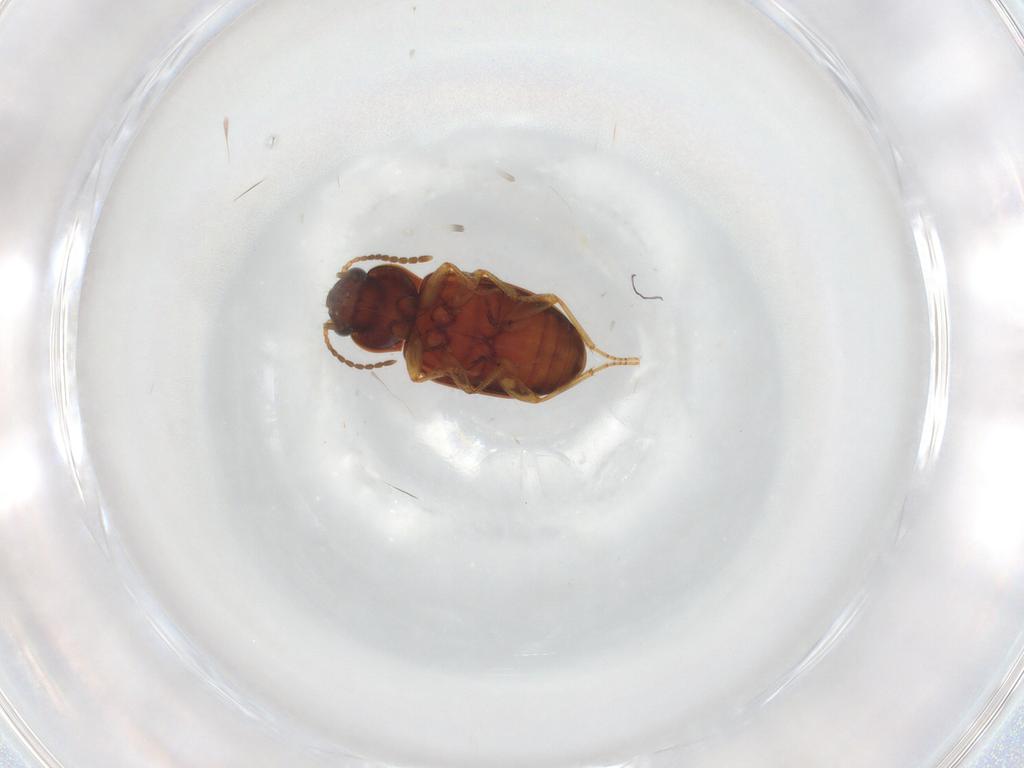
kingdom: Animalia
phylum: Arthropoda
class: Insecta
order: Coleoptera
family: Carabidae
